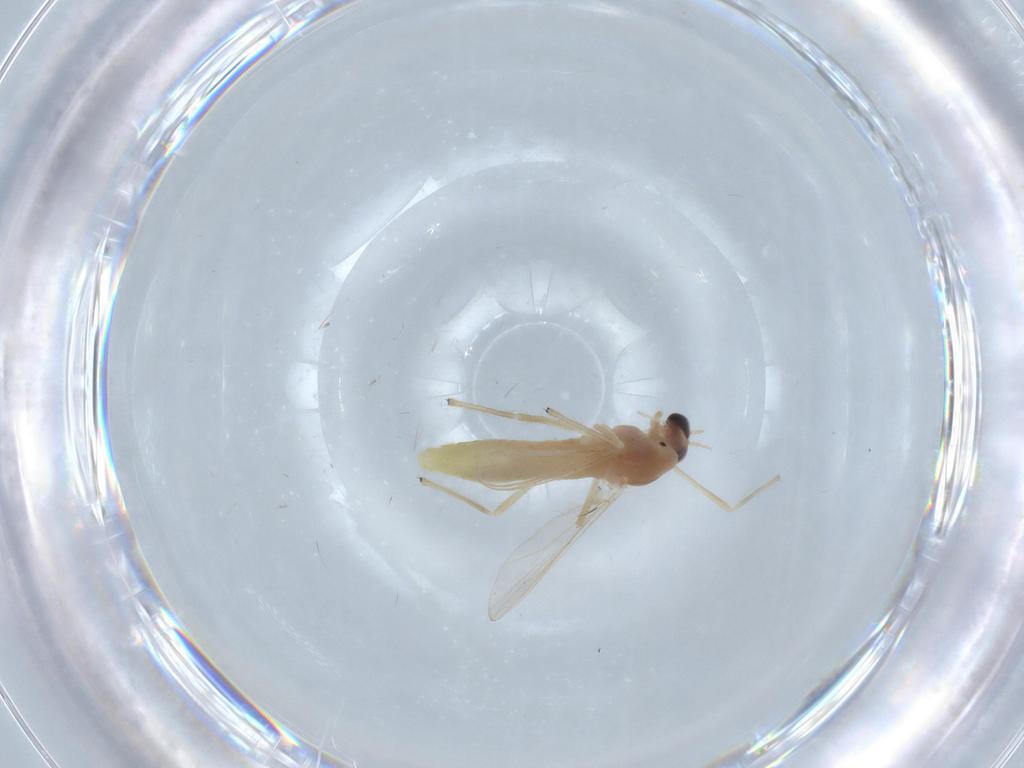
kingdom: Animalia
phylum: Arthropoda
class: Insecta
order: Diptera
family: Chironomidae
